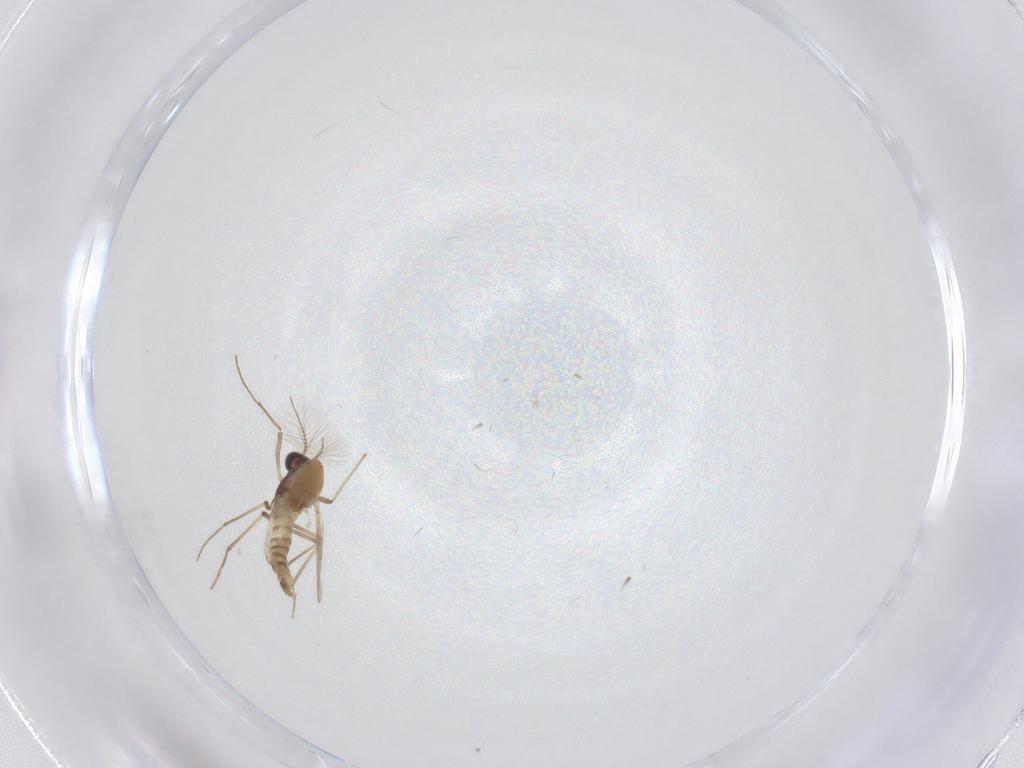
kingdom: Animalia
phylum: Arthropoda
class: Insecta
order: Diptera
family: Chironomidae
